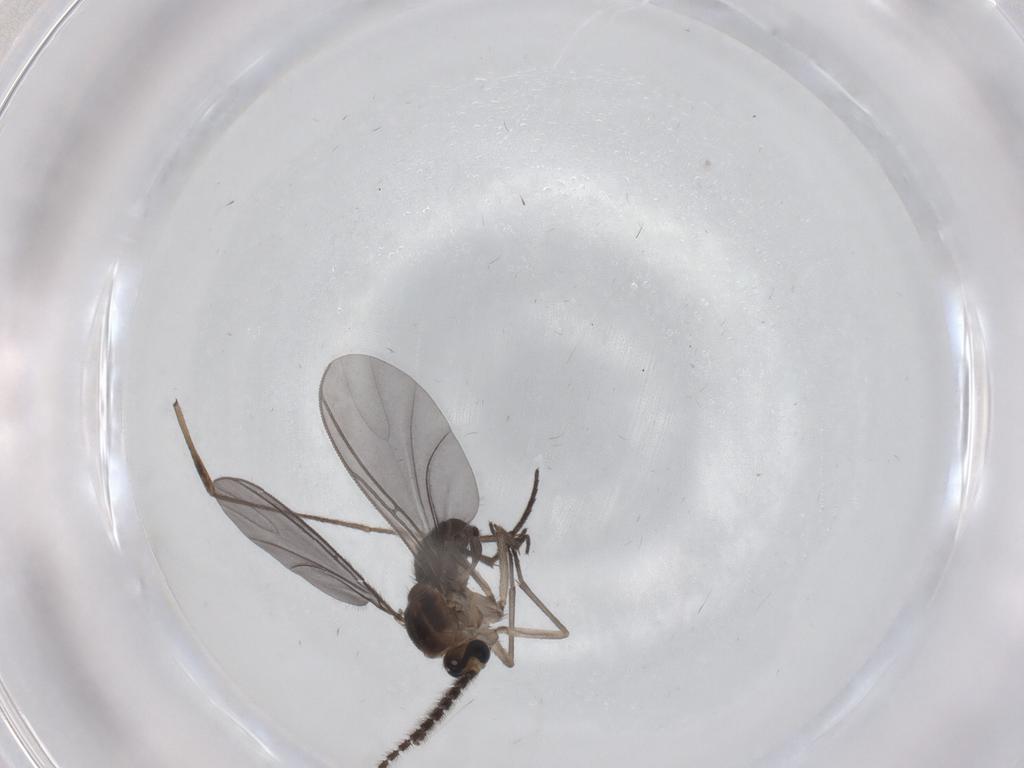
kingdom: Animalia
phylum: Arthropoda
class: Insecta
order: Diptera
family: Sciaridae
